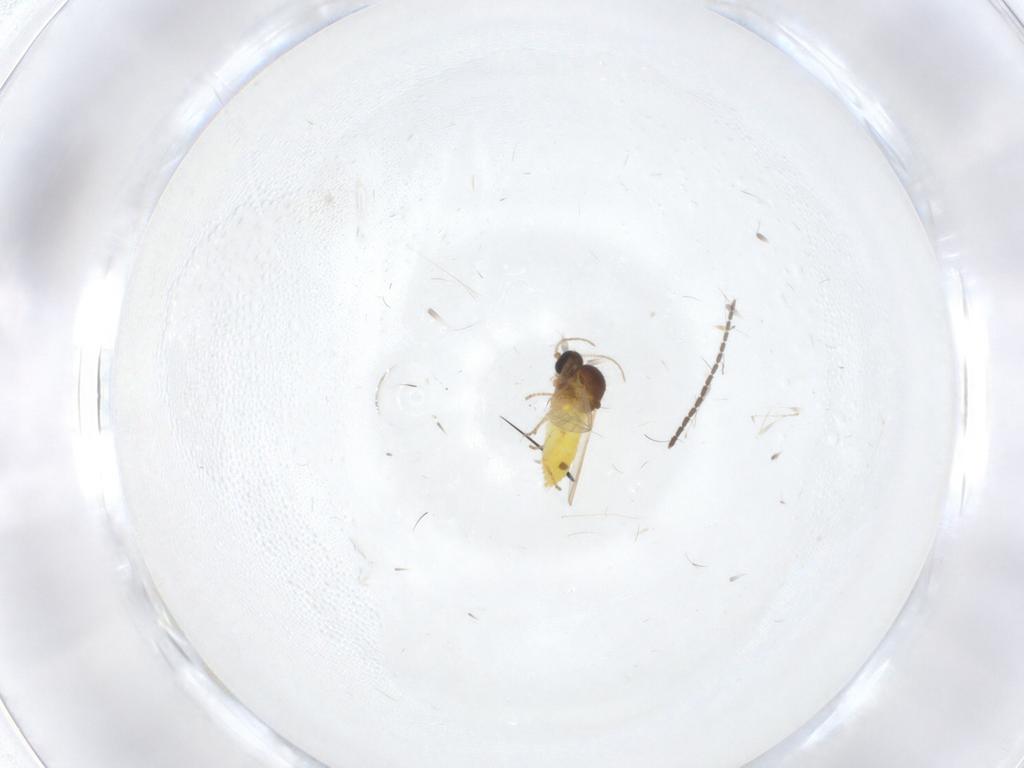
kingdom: Animalia
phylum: Arthropoda
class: Insecta
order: Diptera
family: Ceratopogonidae
